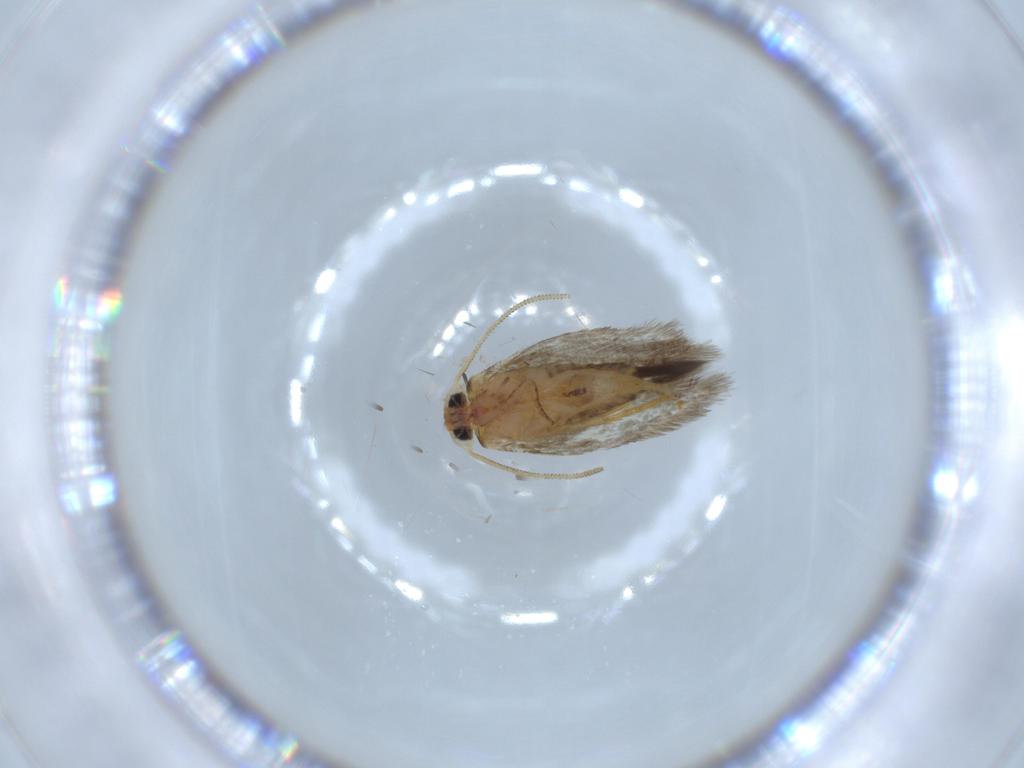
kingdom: Animalia
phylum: Arthropoda
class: Insecta
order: Lepidoptera
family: Nepticulidae
